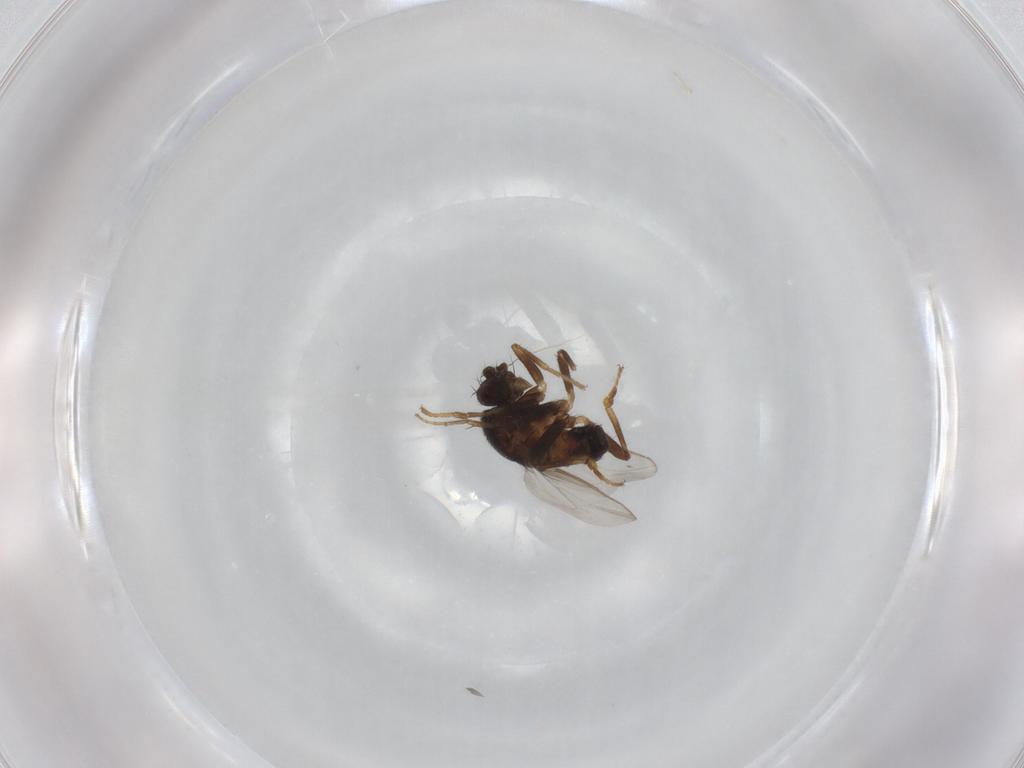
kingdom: Animalia
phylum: Arthropoda
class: Insecta
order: Diptera
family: Sphaeroceridae
